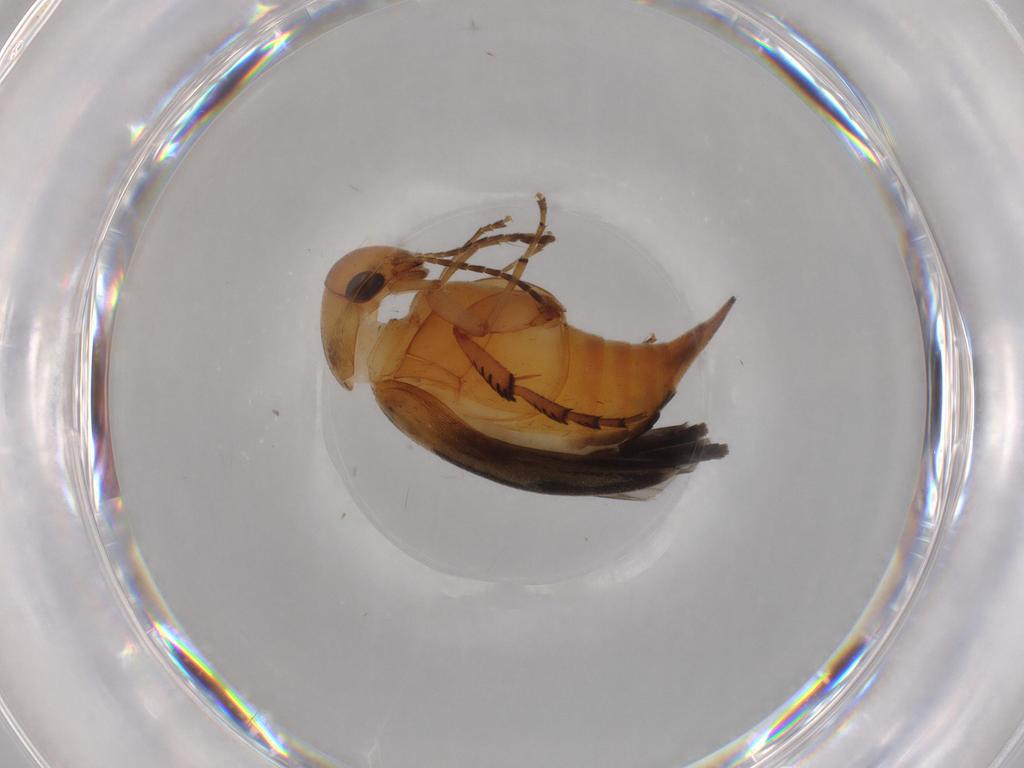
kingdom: Animalia
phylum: Arthropoda
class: Insecta
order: Coleoptera
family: Mordellidae
